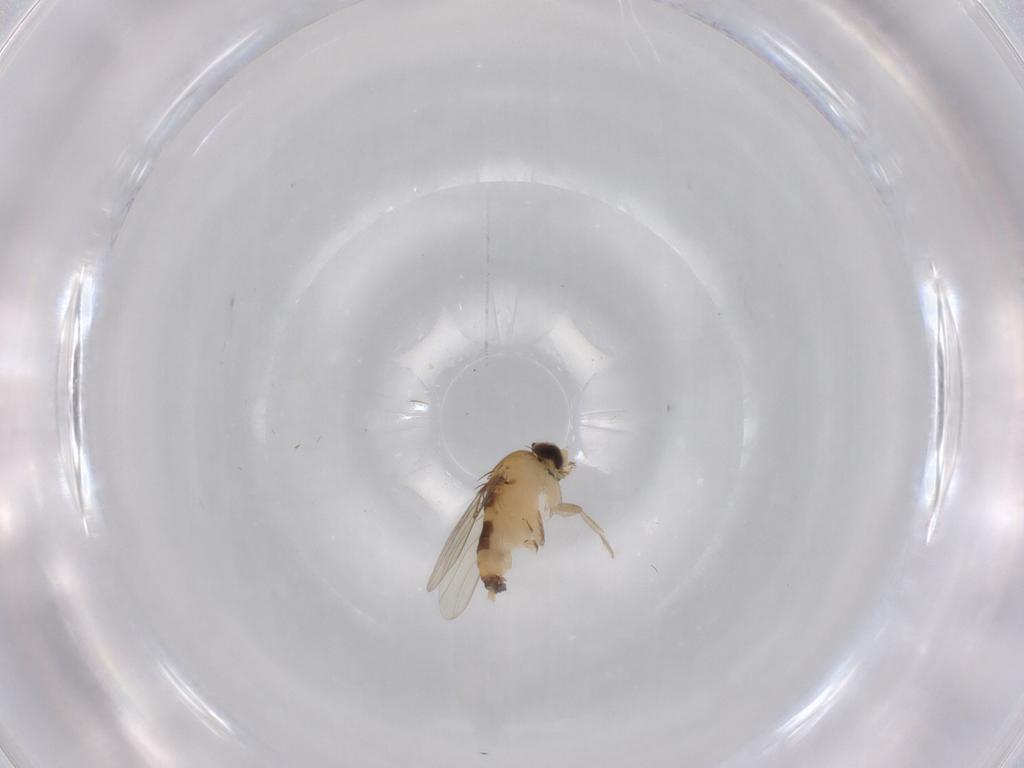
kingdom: Animalia
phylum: Arthropoda
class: Insecta
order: Diptera
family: Phoridae
